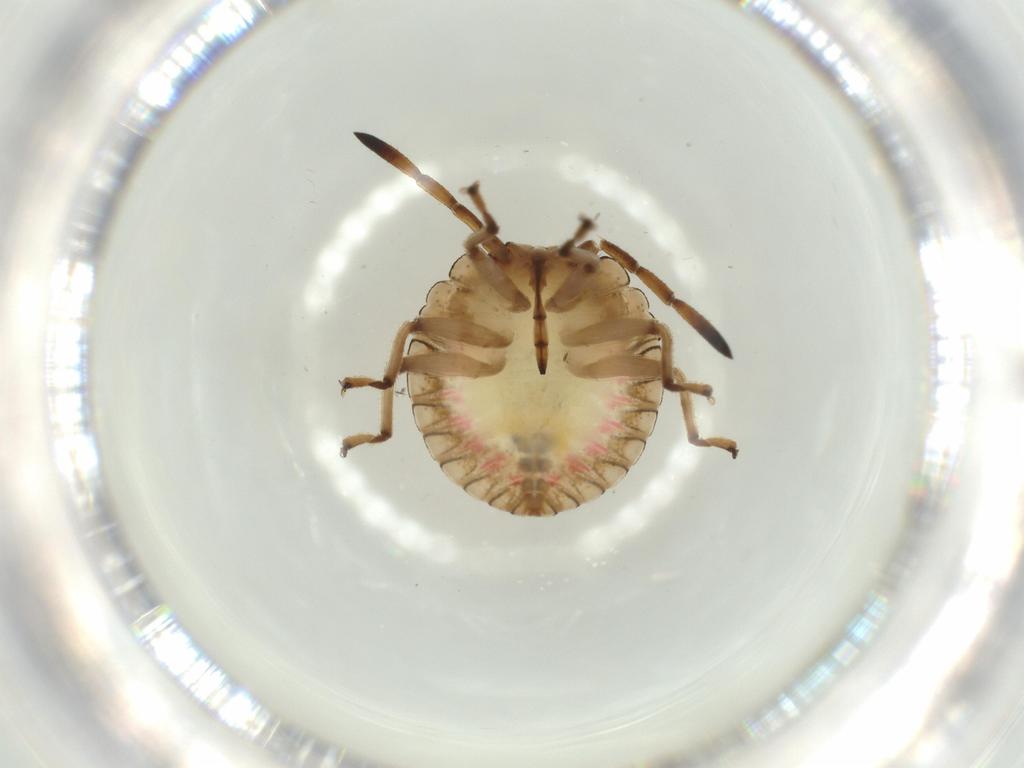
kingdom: Animalia
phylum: Arthropoda
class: Insecta
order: Hemiptera
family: Pentatomidae
